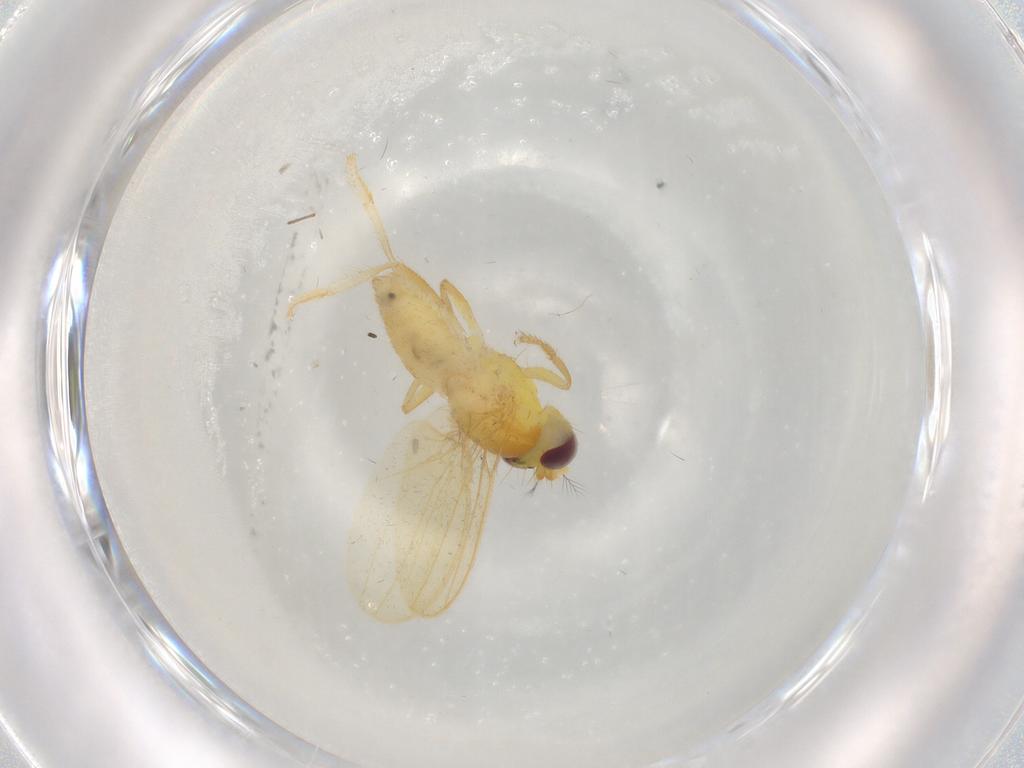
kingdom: Animalia
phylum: Arthropoda
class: Insecta
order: Diptera
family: Periscelididae
